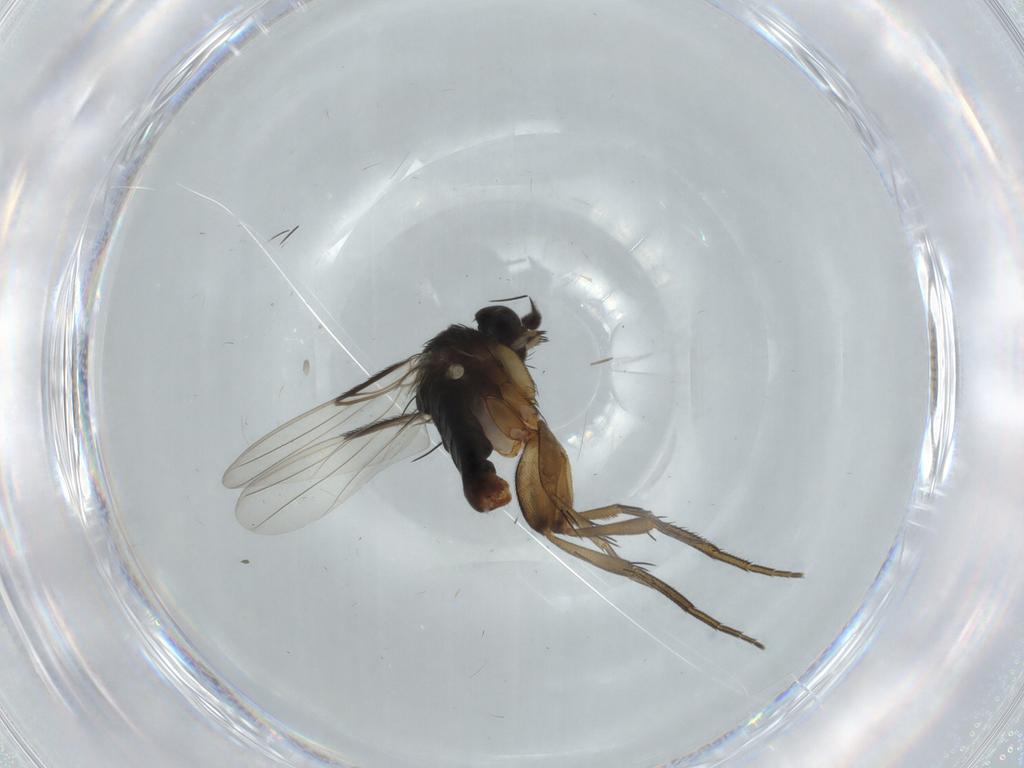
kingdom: Animalia
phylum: Arthropoda
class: Insecta
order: Diptera
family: Phoridae
